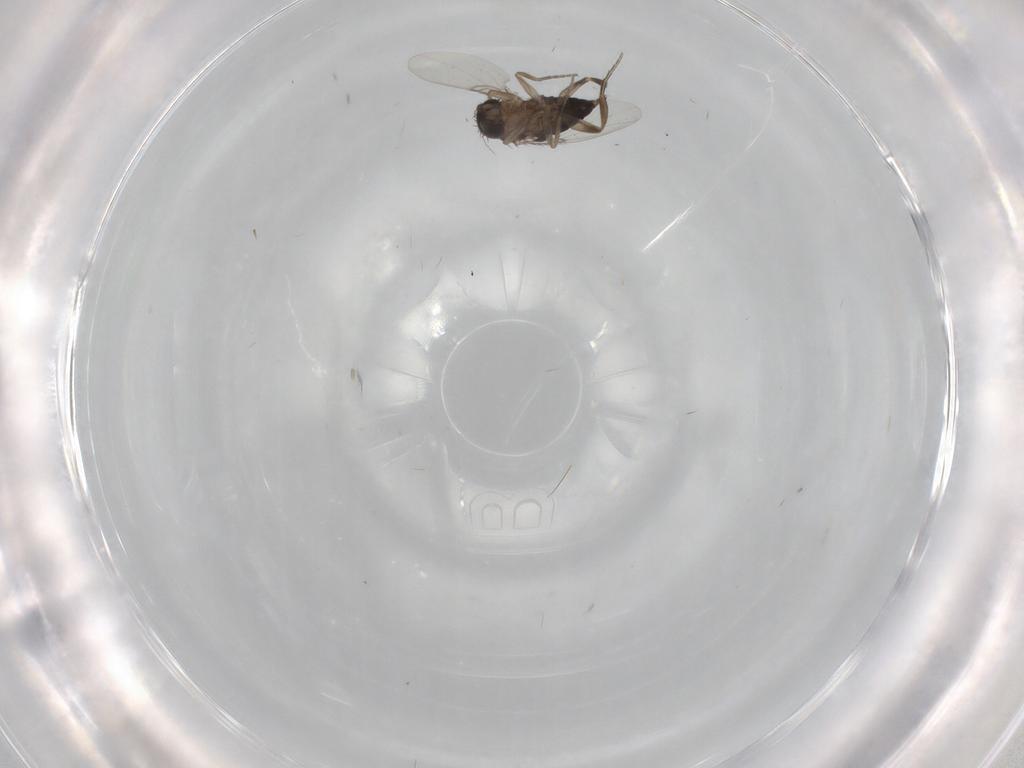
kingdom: Animalia
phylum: Arthropoda
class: Insecta
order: Diptera
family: Phoridae
